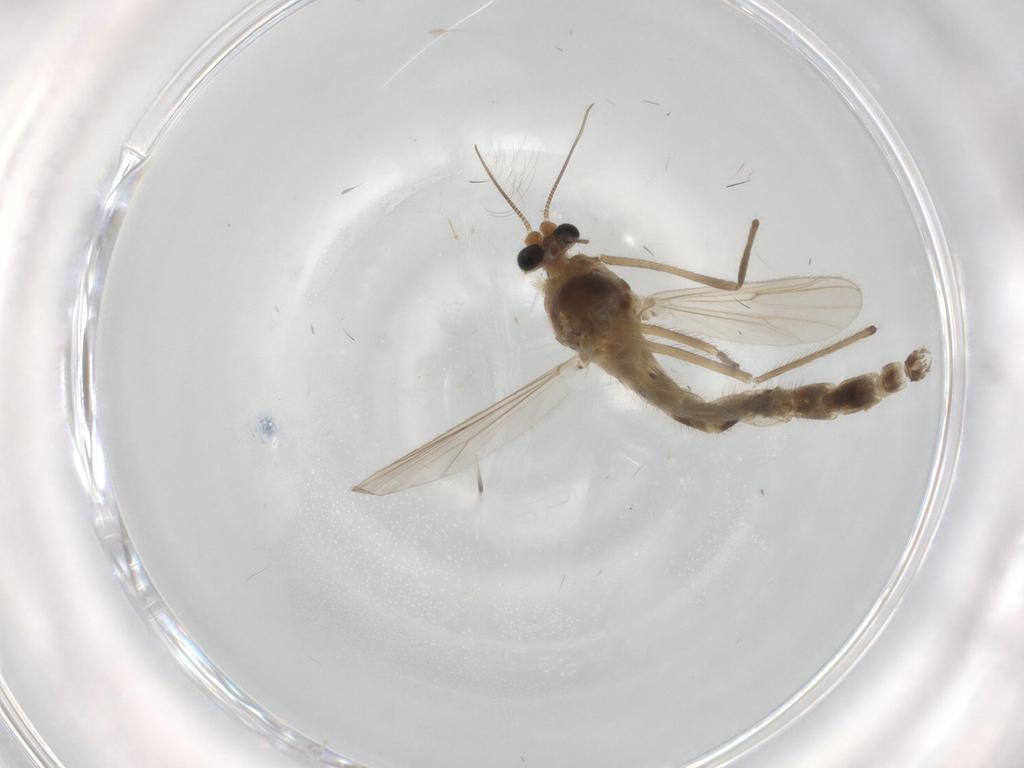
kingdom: Animalia
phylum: Arthropoda
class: Insecta
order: Diptera
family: Chironomidae
